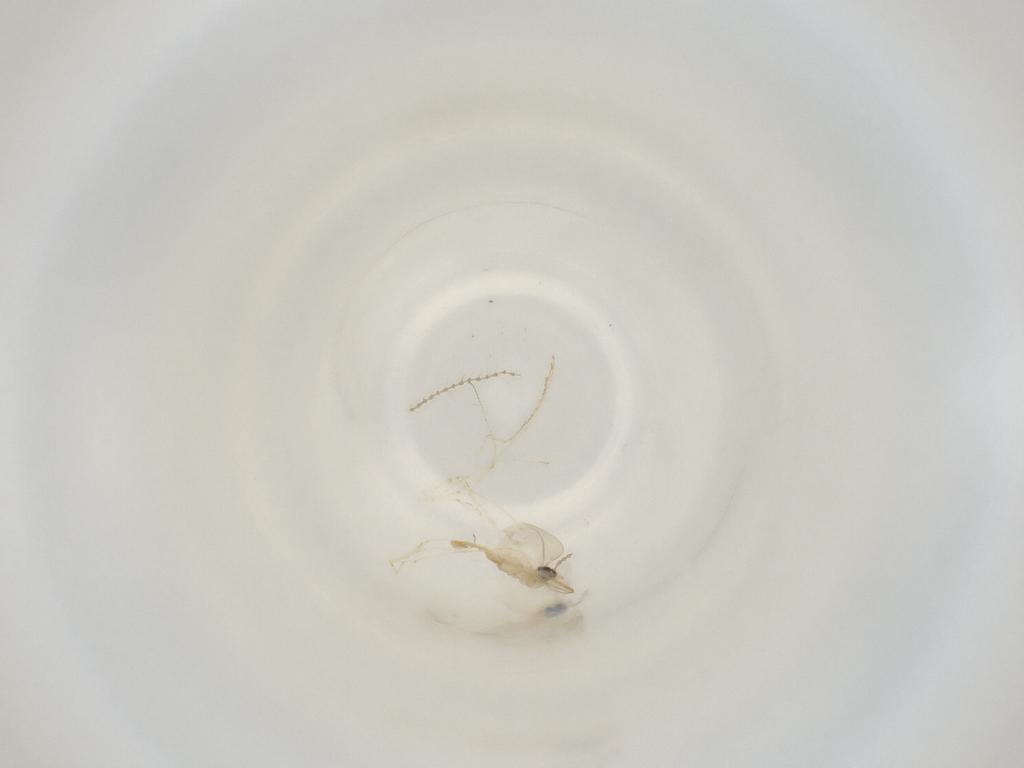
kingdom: Animalia
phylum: Arthropoda
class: Insecta
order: Diptera
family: Cecidomyiidae
